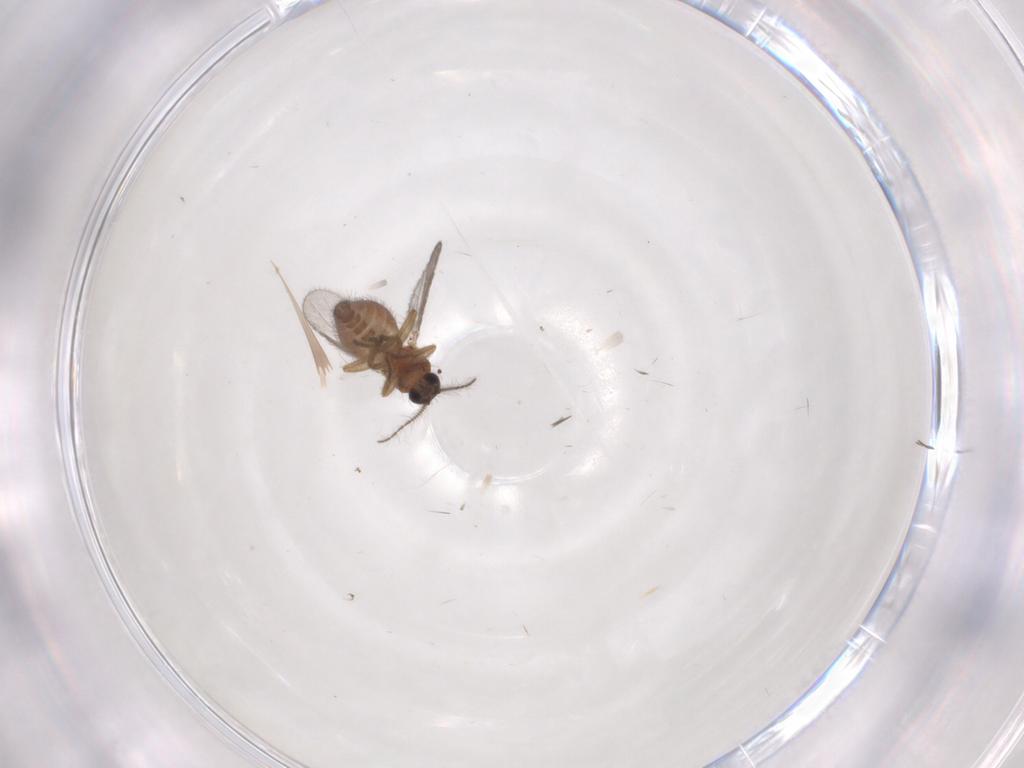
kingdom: Animalia
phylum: Arthropoda
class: Insecta
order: Diptera
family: Ceratopogonidae
